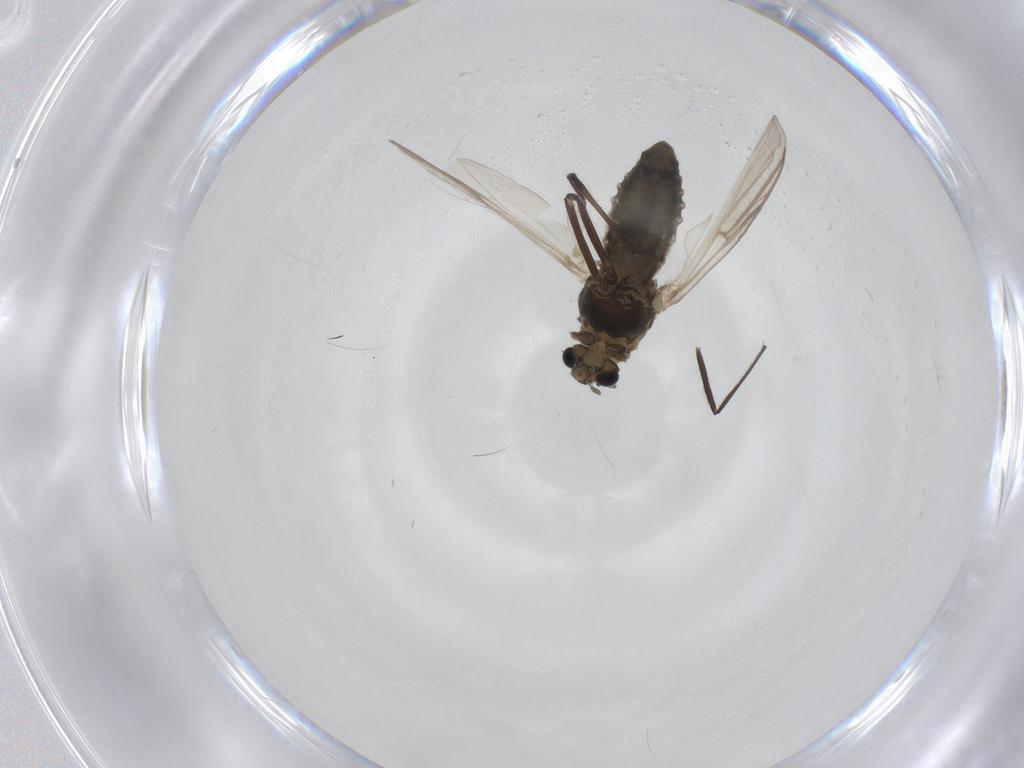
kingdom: Animalia
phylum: Arthropoda
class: Insecta
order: Diptera
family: Chironomidae
